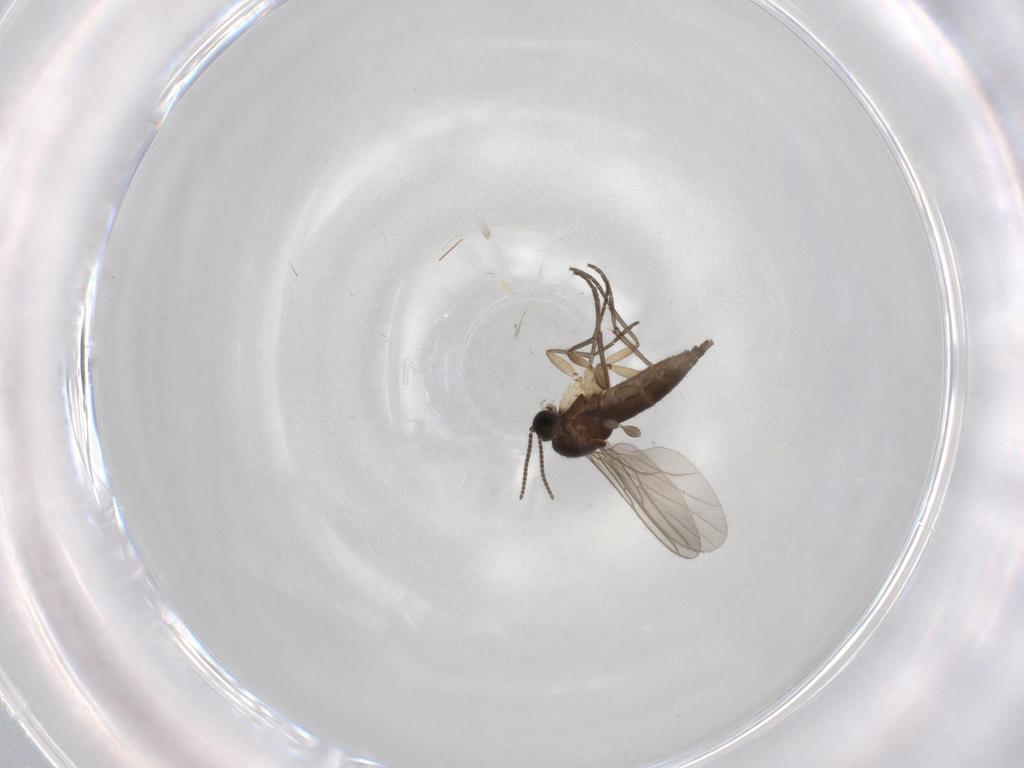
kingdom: Animalia
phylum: Arthropoda
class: Insecta
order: Diptera
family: Sciaridae
